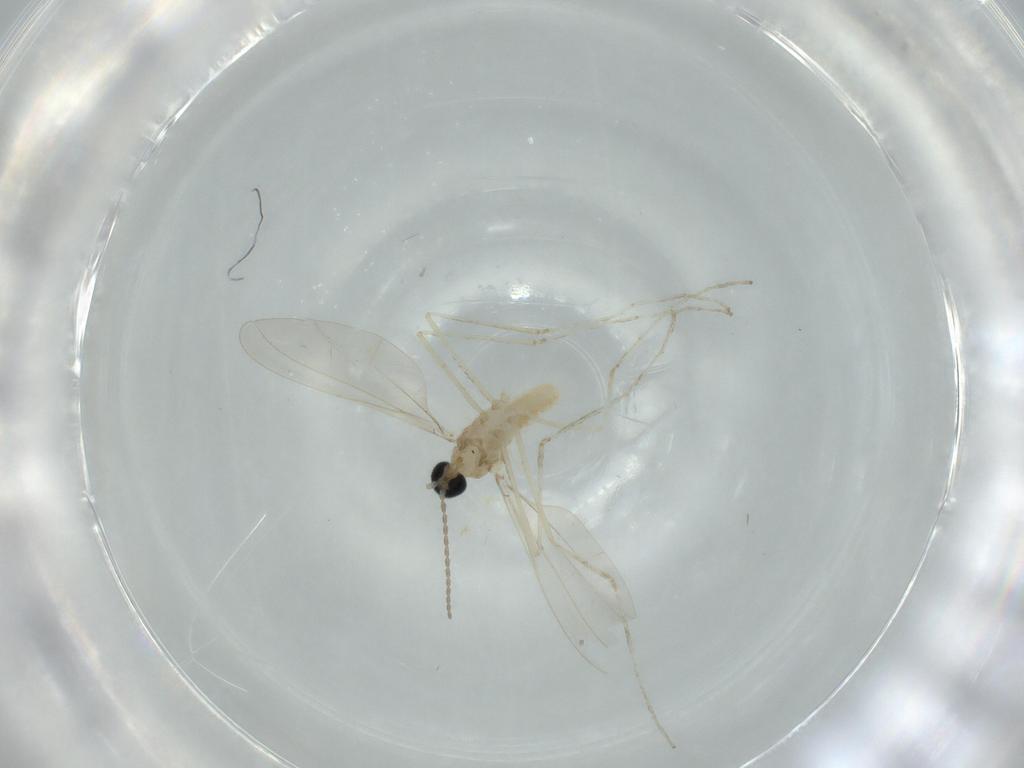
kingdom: Animalia
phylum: Arthropoda
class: Insecta
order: Diptera
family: Cecidomyiidae
